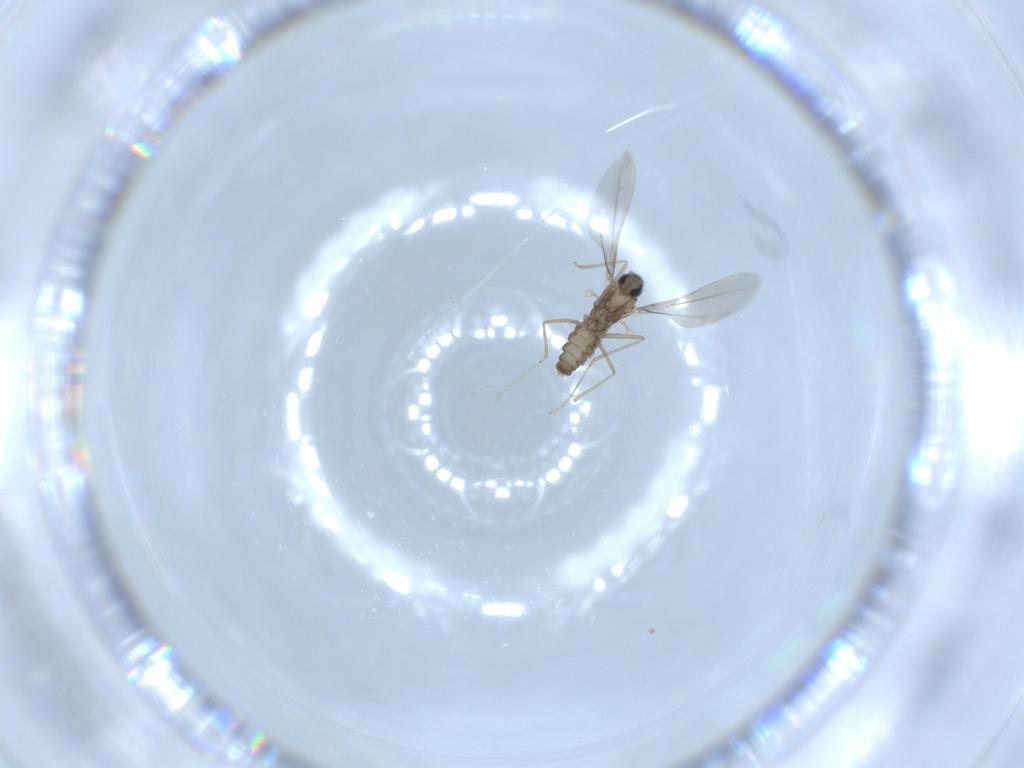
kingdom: Animalia
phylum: Arthropoda
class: Insecta
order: Diptera
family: Cecidomyiidae
